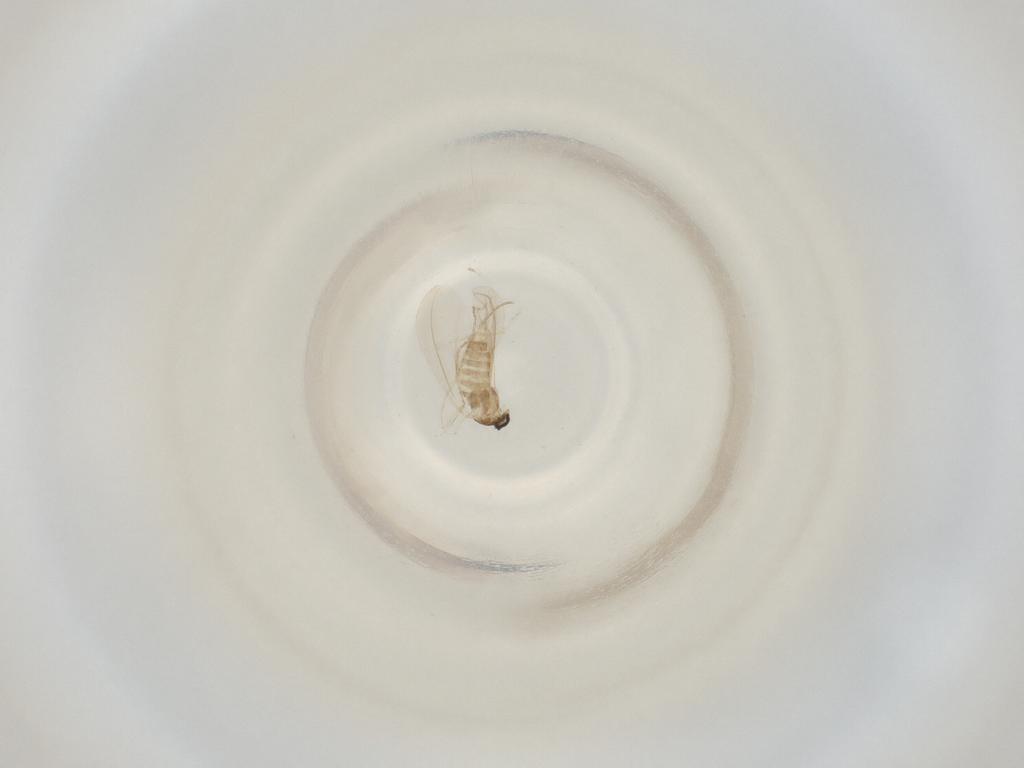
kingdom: Animalia
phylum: Arthropoda
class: Insecta
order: Diptera
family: Cecidomyiidae
